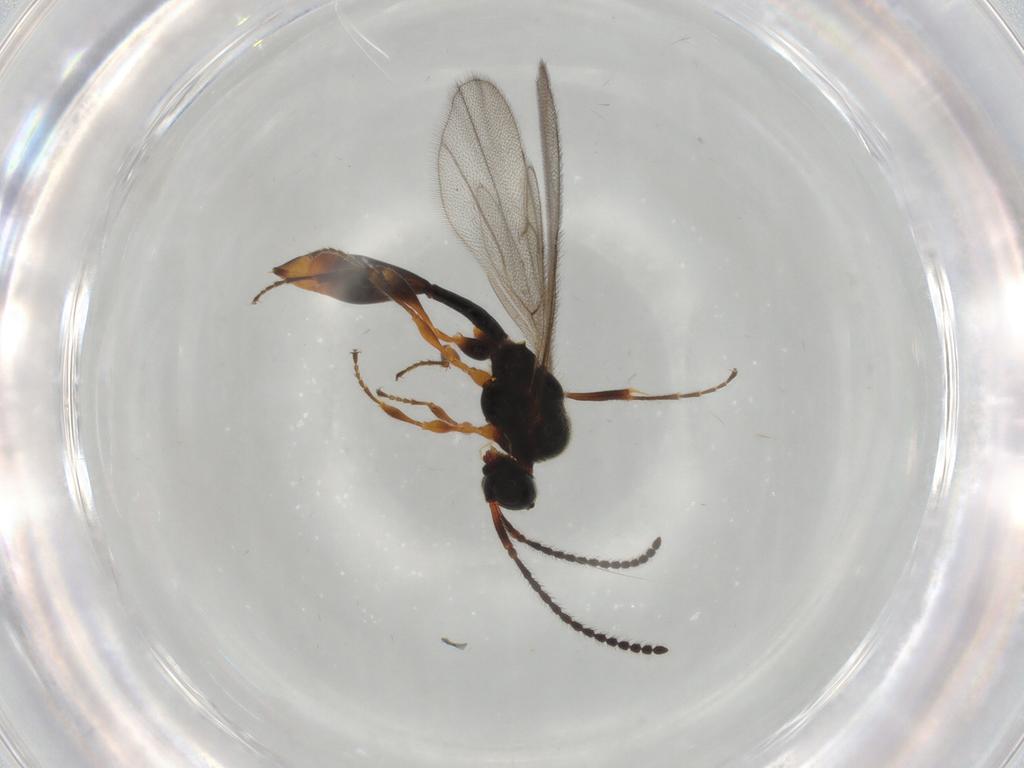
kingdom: Animalia
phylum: Arthropoda
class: Insecta
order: Hymenoptera
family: Diapriidae
